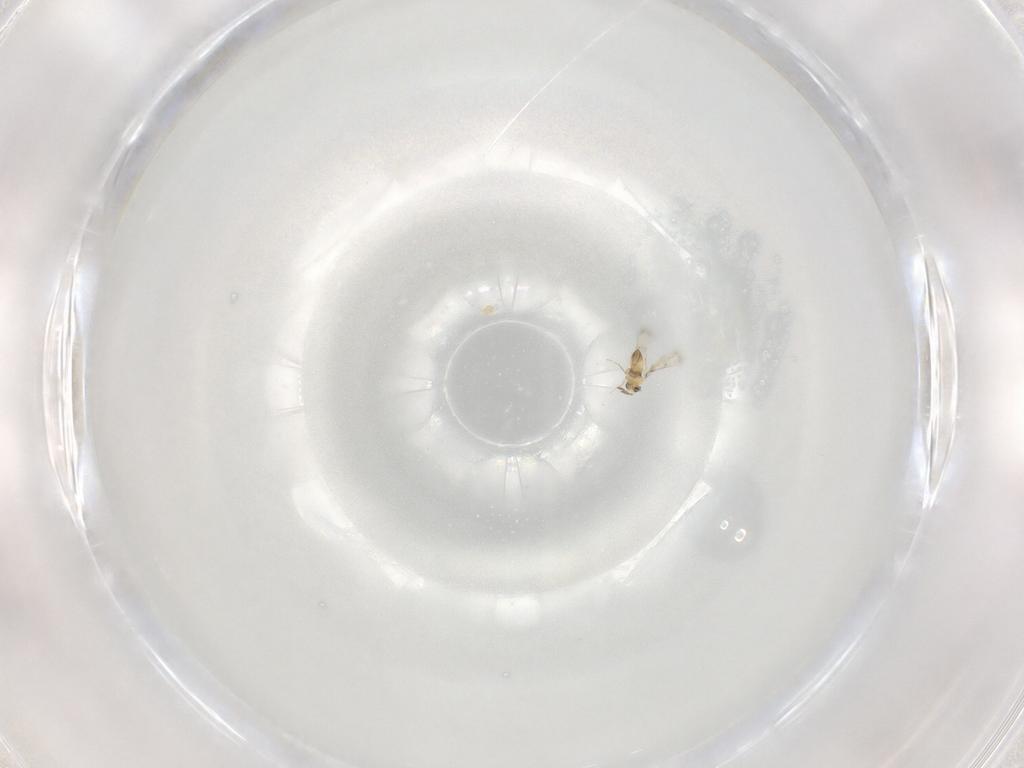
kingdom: Animalia
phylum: Arthropoda
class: Insecta
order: Hymenoptera
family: Trichogrammatidae
